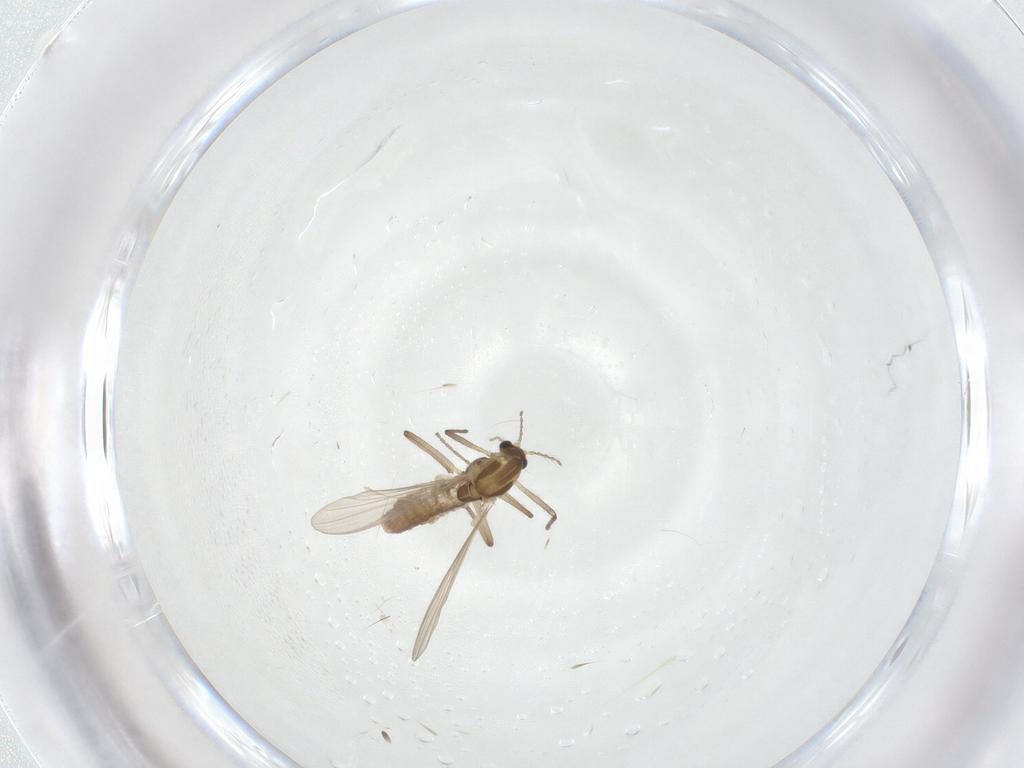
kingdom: Animalia
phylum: Arthropoda
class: Insecta
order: Diptera
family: Chironomidae
